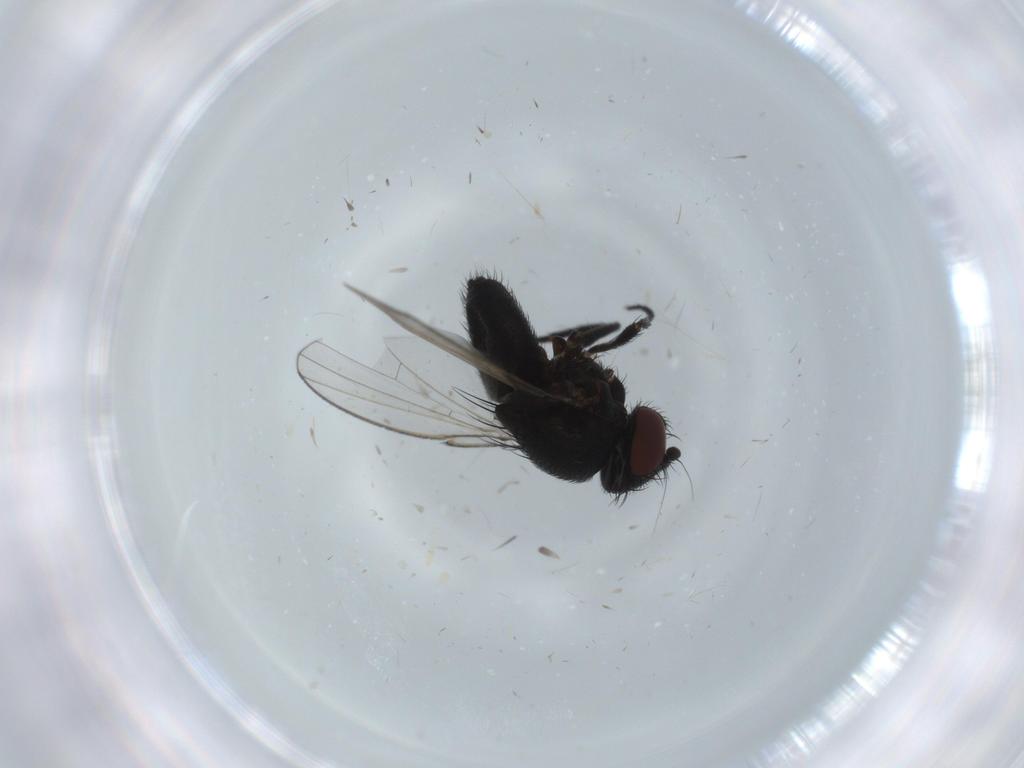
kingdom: Animalia
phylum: Arthropoda
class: Insecta
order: Diptera
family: Milichiidae
